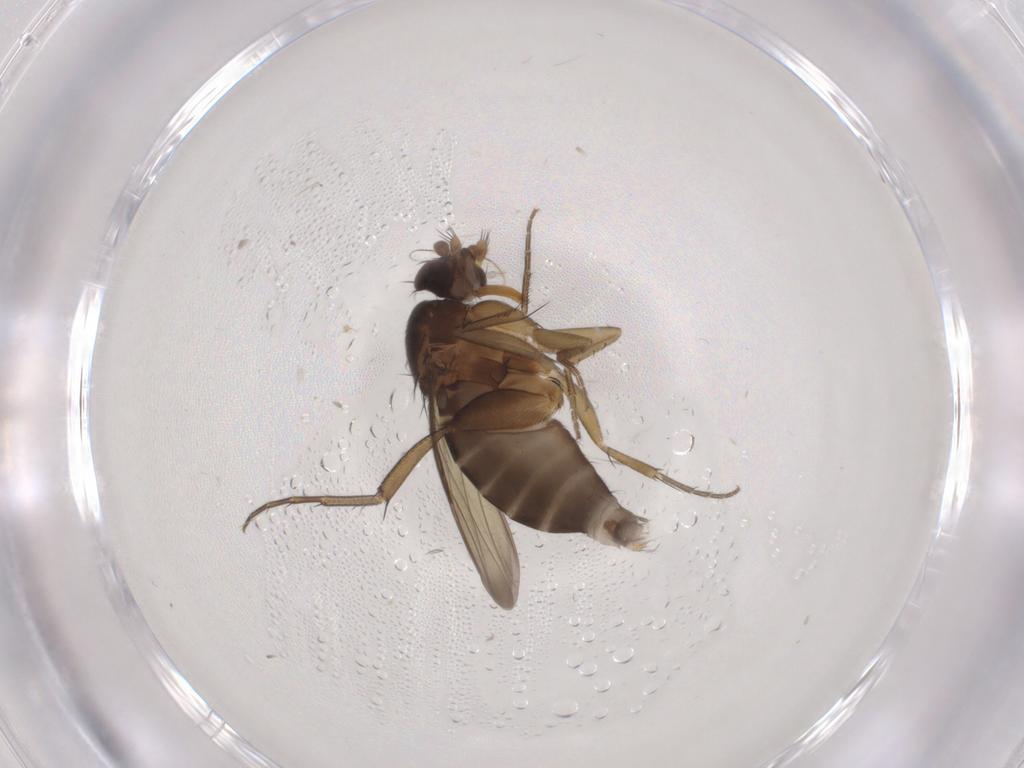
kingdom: Animalia
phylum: Arthropoda
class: Insecta
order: Diptera
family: Phoridae
